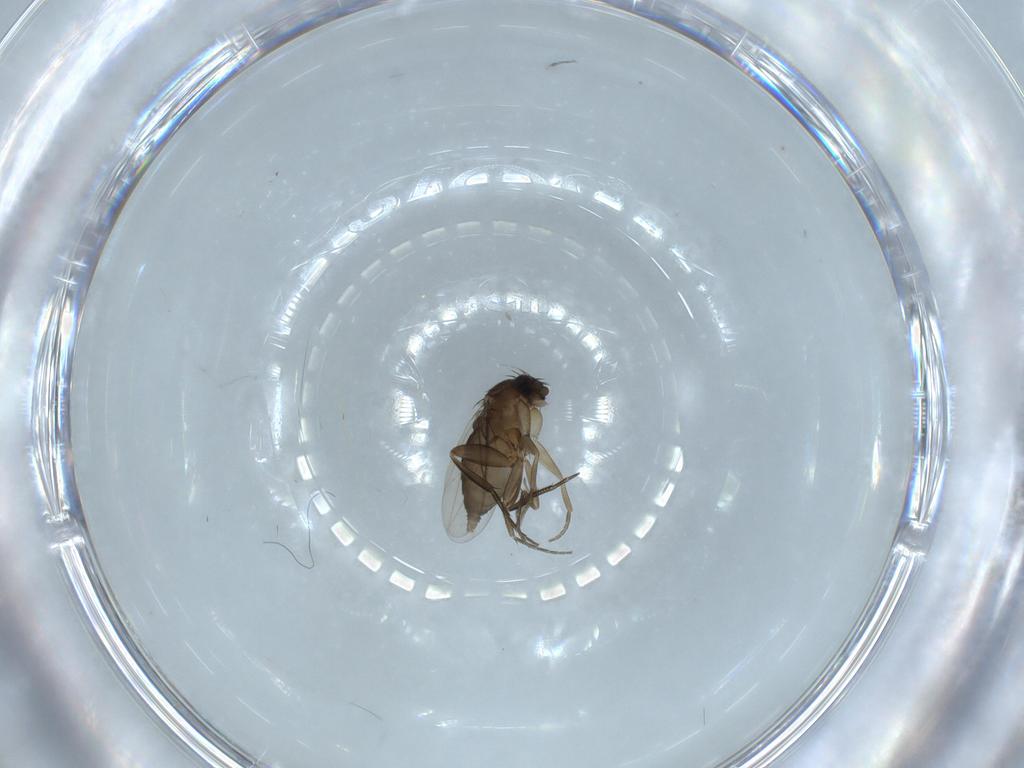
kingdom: Animalia
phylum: Arthropoda
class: Insecta
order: Diptera
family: Phoridae
